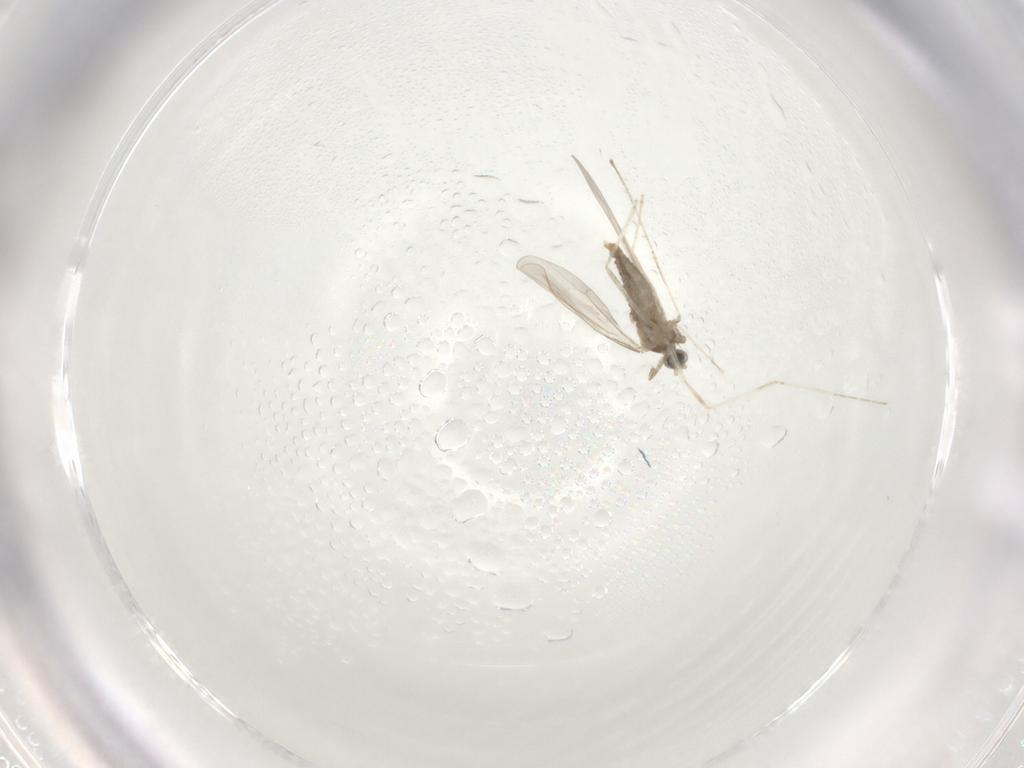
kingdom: Animalia
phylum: Arthropoda
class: Insecta
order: Diptera
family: Cecidomyiidae
